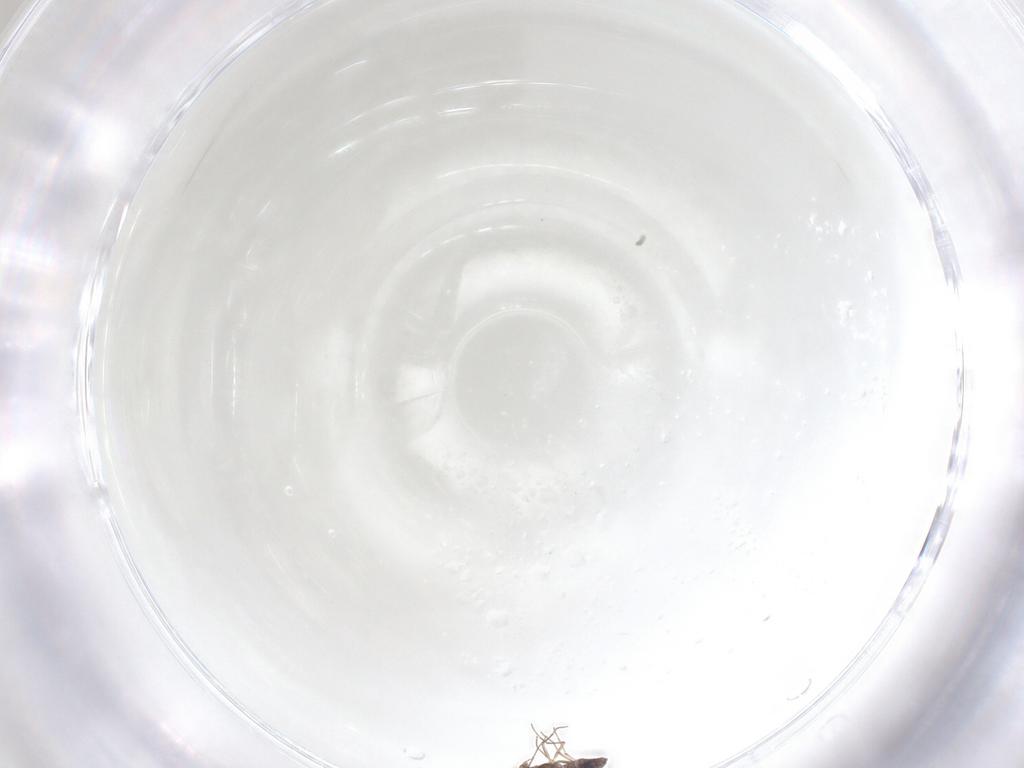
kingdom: Animalia
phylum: Arthropoda
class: Insecta
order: Diptera
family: Chironomidae
